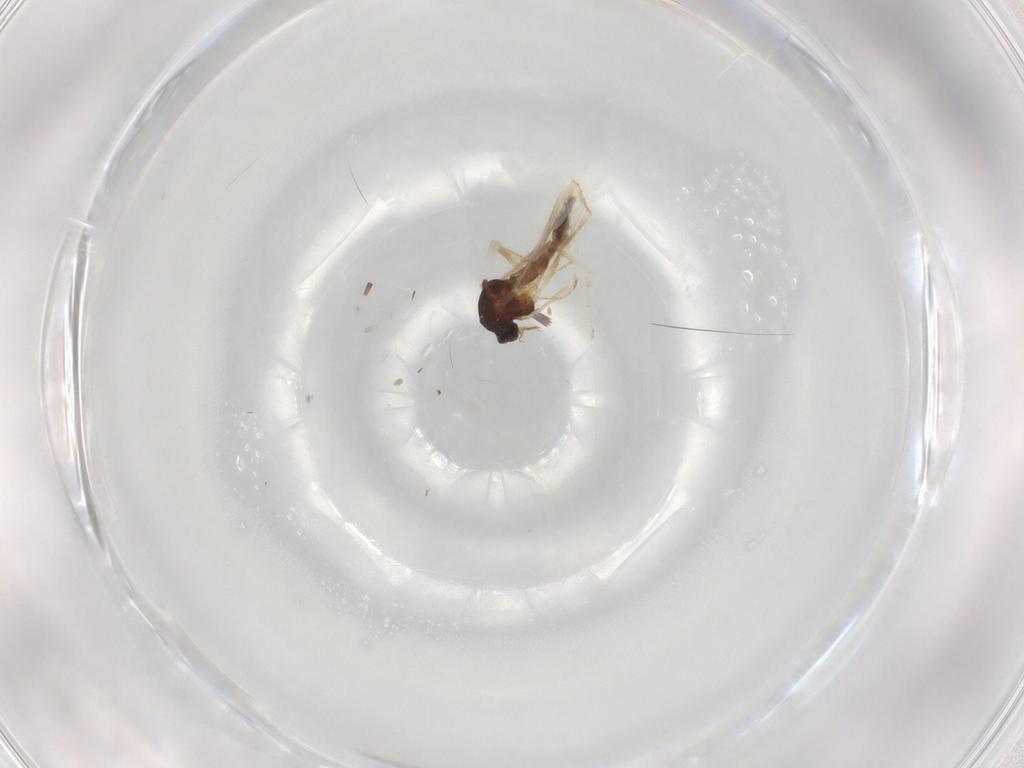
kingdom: Animalia
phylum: Arthropoda
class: Insecta
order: Diptera
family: Ceratopogonidae
